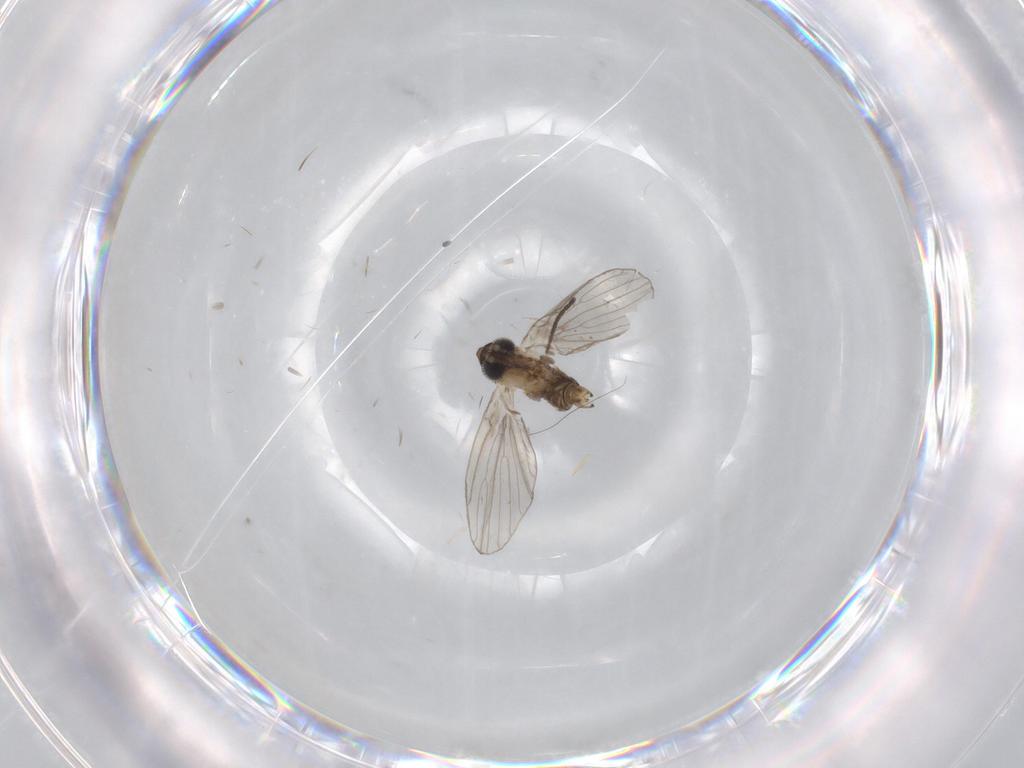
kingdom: Animalia
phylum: Arthropoda
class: Insecta
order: Diptera
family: Sciaridae
